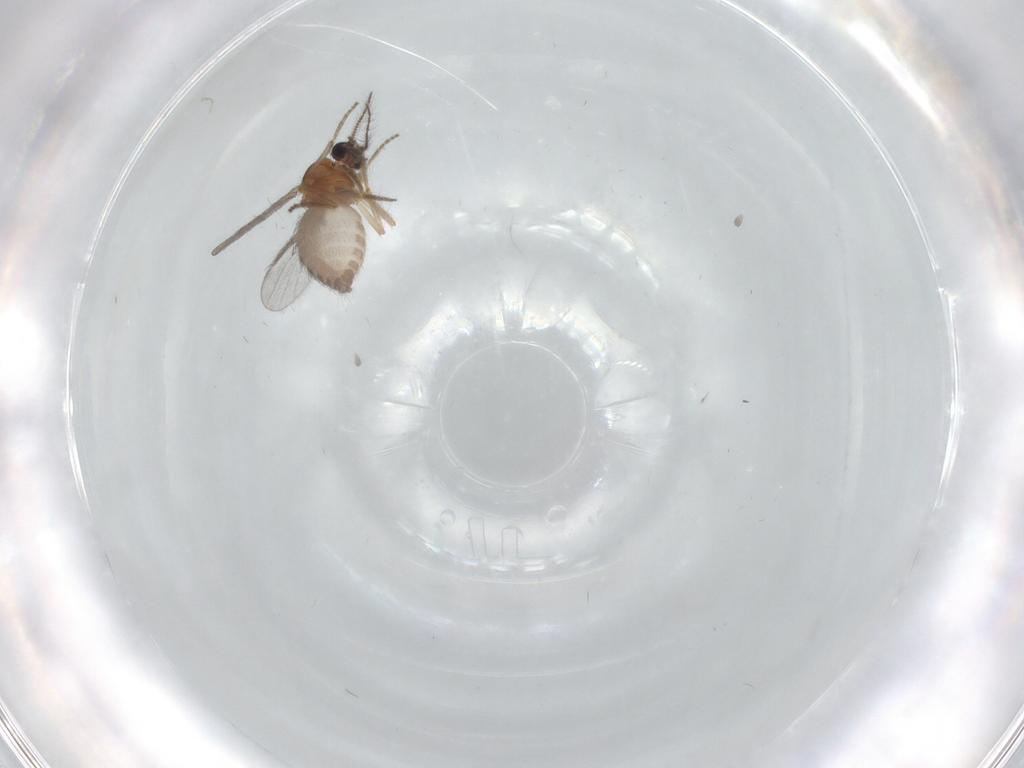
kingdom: Animalia
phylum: Arthropoda
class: Insecta
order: Diptera
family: Ceratopogonidae
